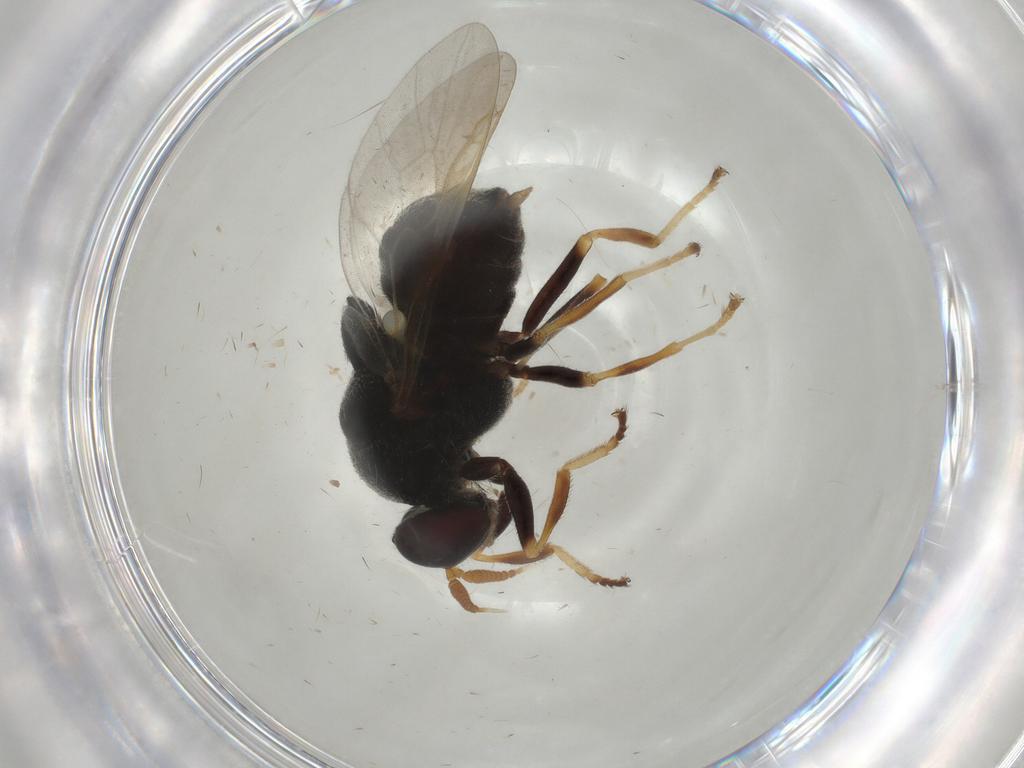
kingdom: Animalia
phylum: Arthropoda
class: Insecta
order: Diptera
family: Stratiomyidae
